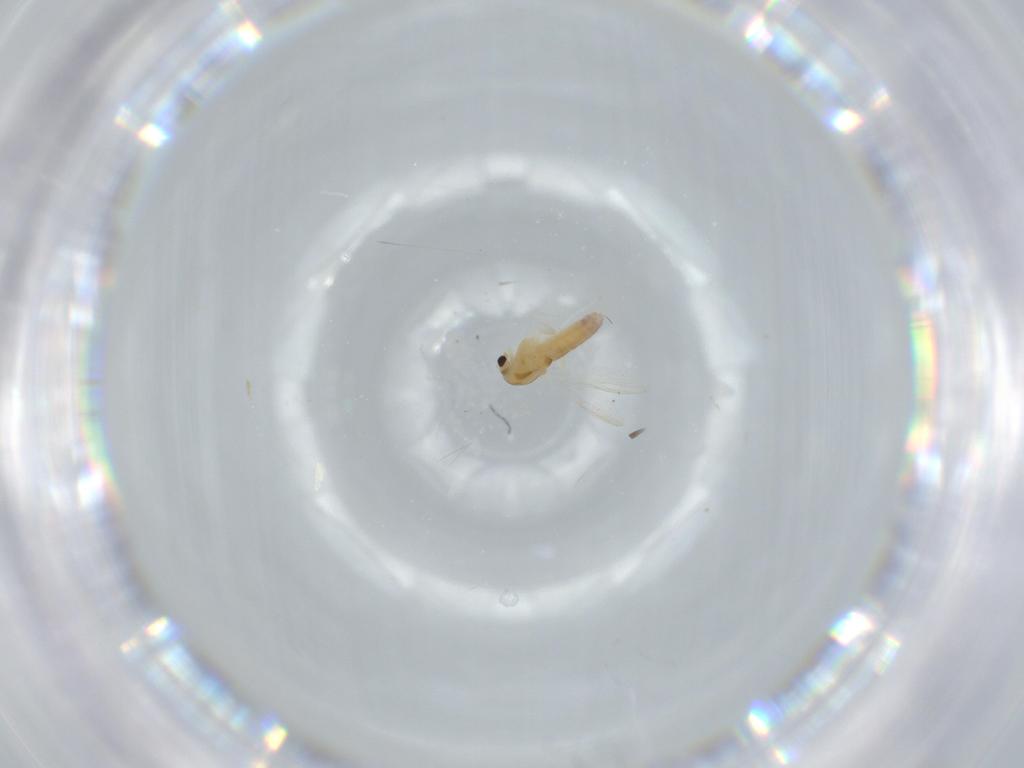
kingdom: Animalia
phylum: Arthropoda
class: Insecta
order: Diptera
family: Chironomidae
